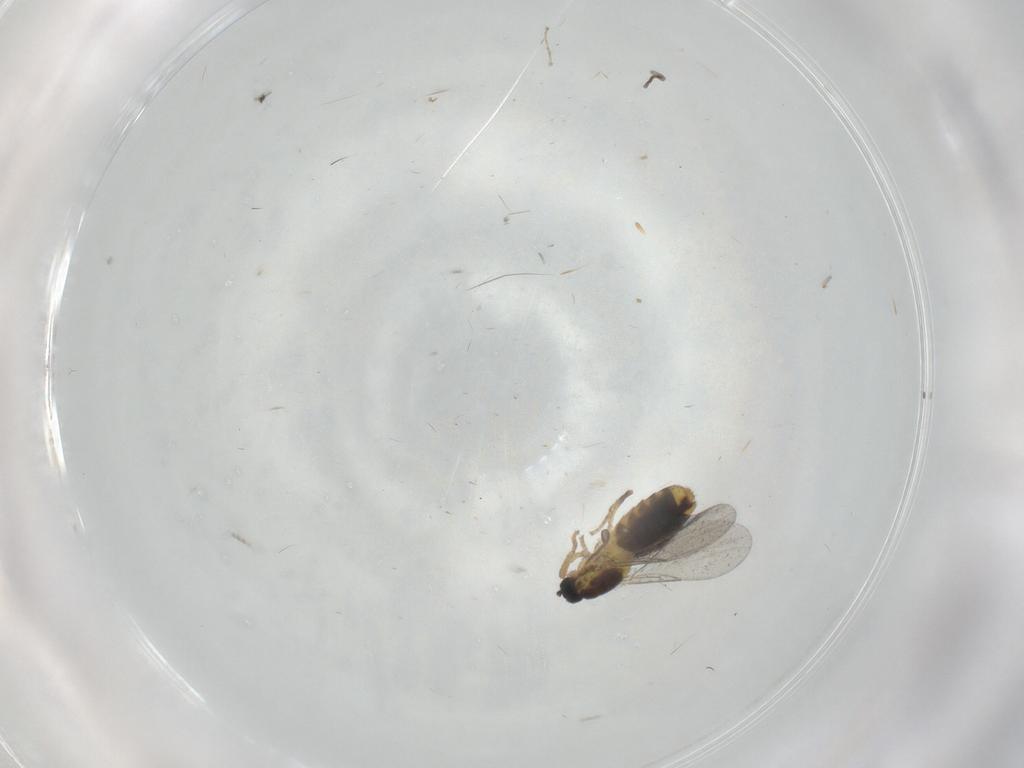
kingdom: Animalia
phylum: Arthropoda
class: Insecta
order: Diptera
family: Scatopsidae
